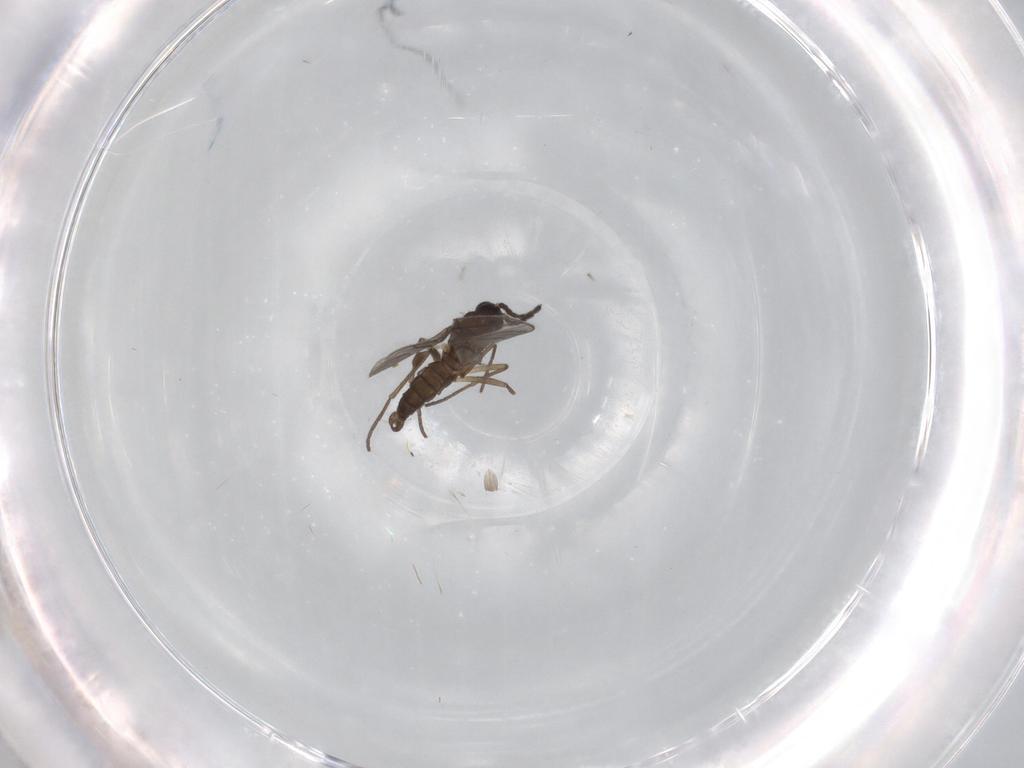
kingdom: Animalia
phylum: Arthropoda
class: Insecta
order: Diptera
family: Sciaridae
